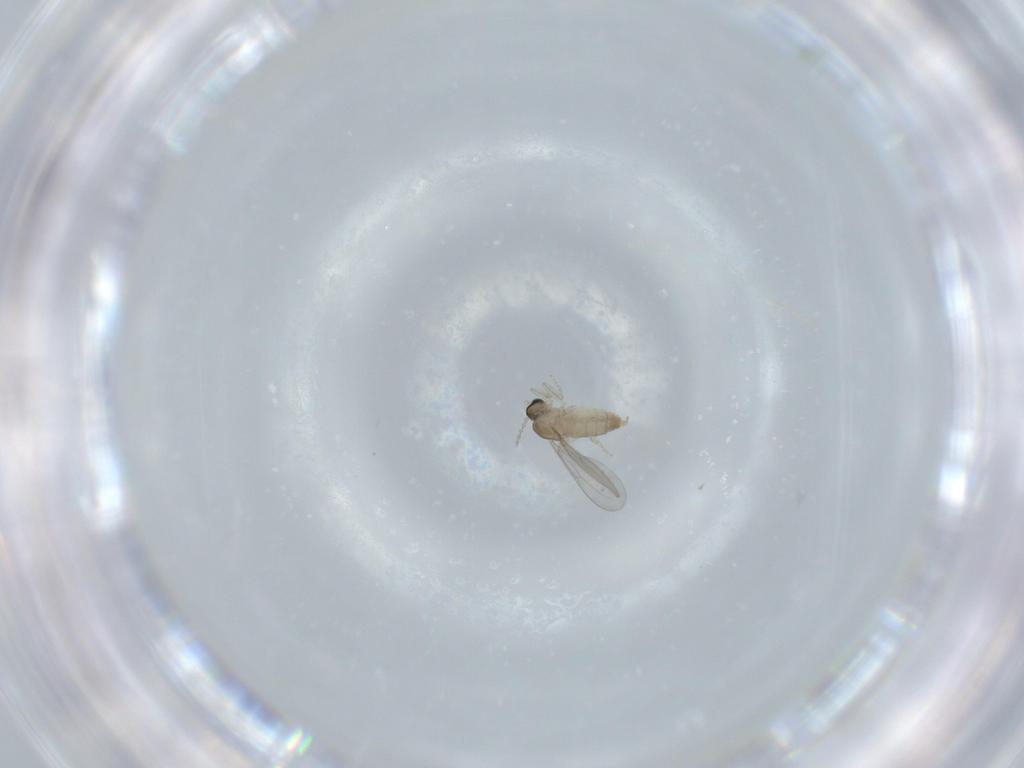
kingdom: Animalia
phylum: Arthropoda
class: Insecta
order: Diptera
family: Cecidomyiidae
